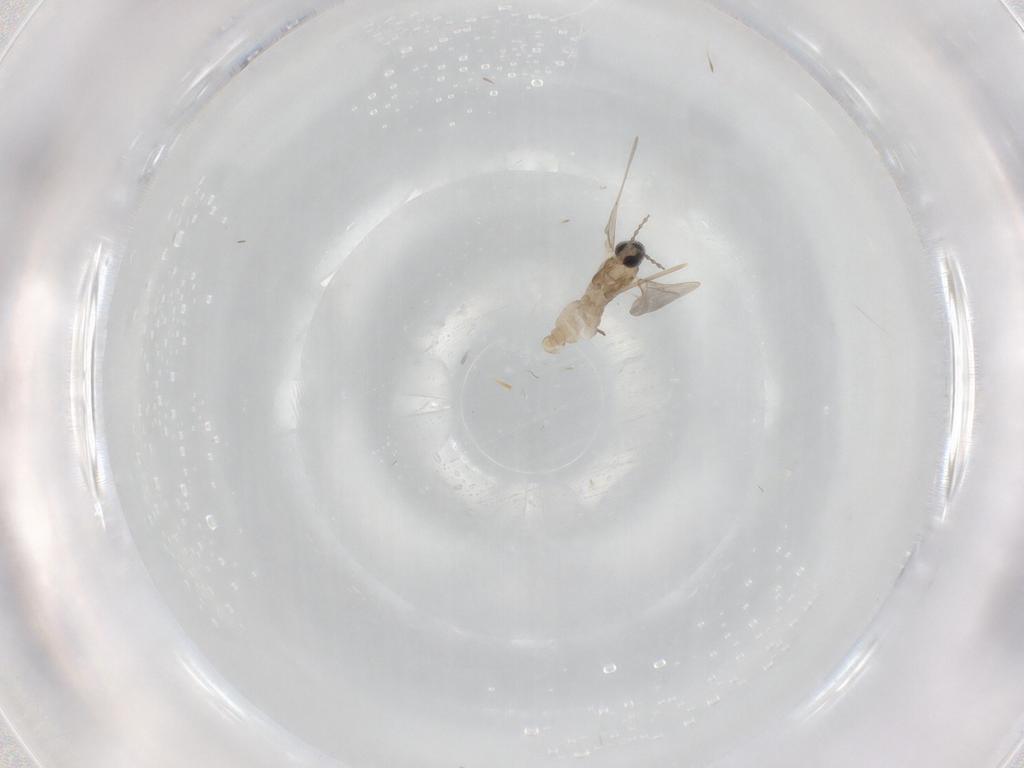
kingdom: Animalia
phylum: Arthropoda
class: Insecta
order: Diptera
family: Cecidomyiidae
